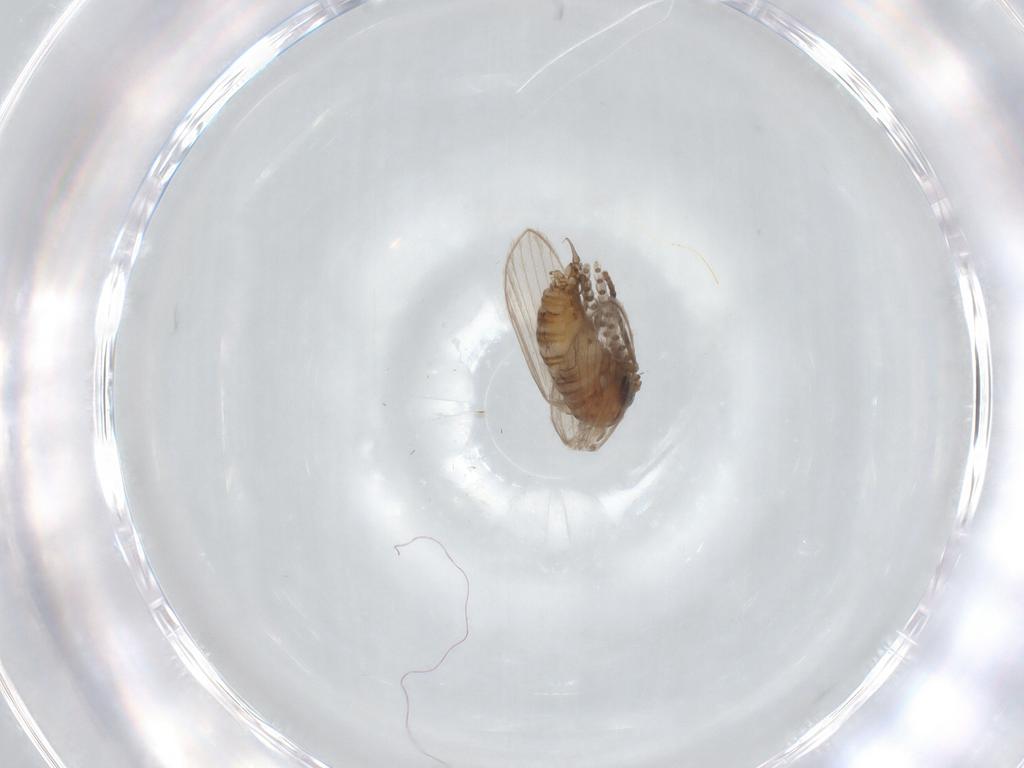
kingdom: Animalia
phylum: Arthropoda
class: Insecta
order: Diptera
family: Psychodidae
